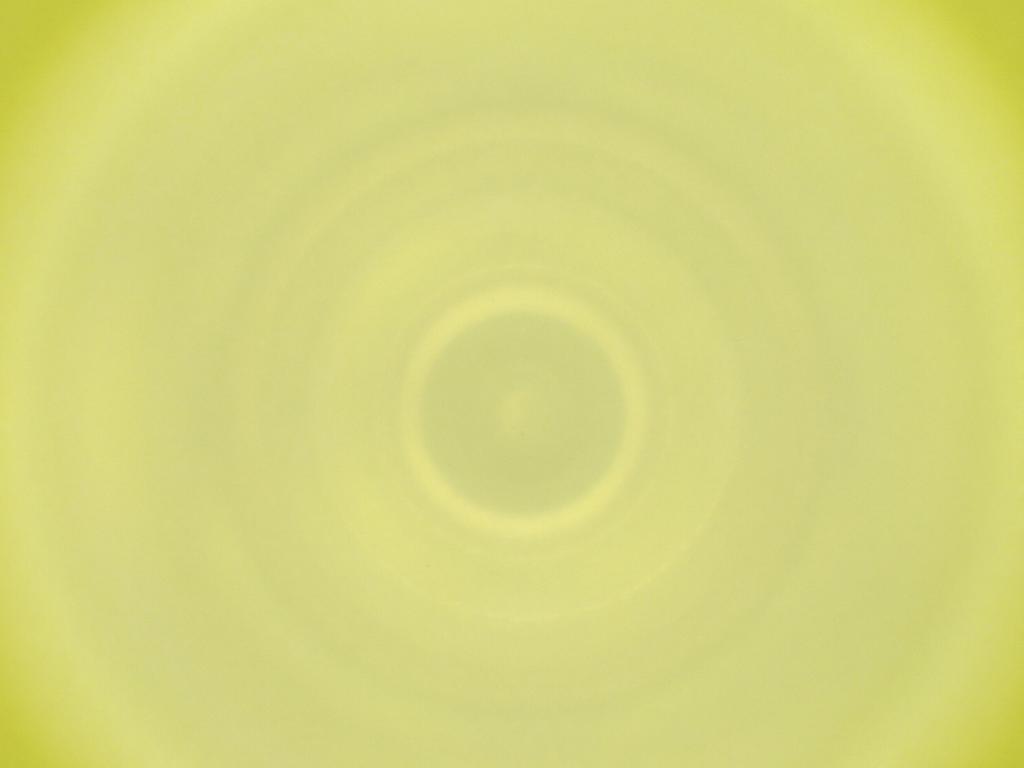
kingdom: Animalia
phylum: Arthropoda
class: Insecta
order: Diptera
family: Cecidomyiidae
